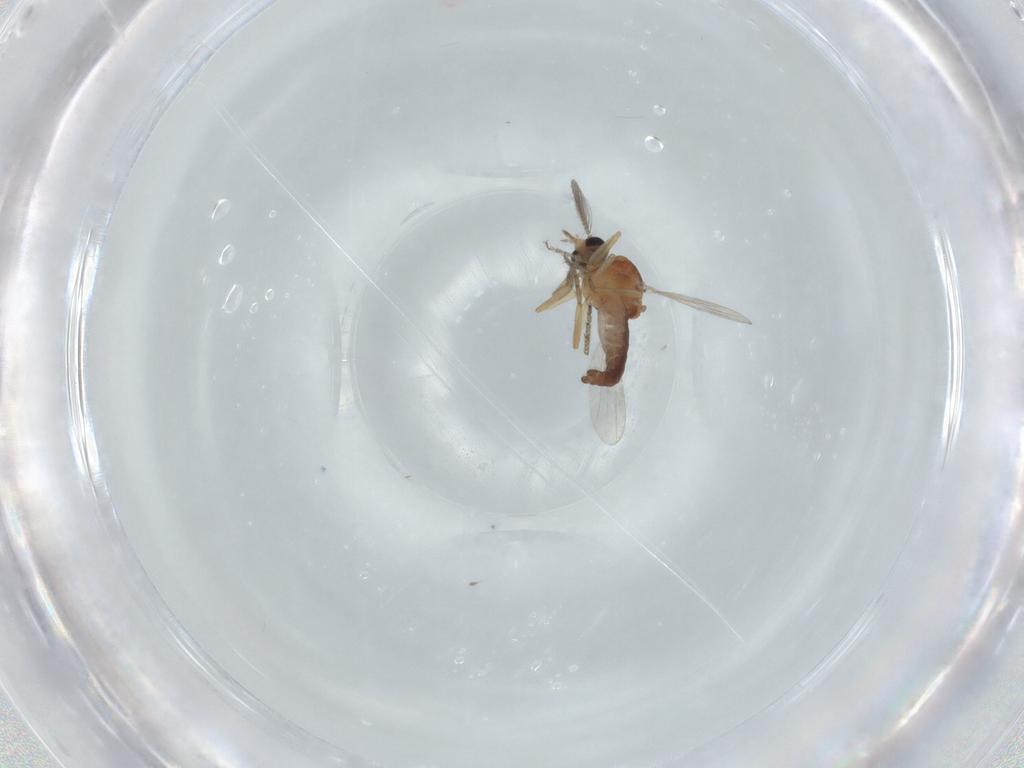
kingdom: Animalia
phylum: Arthropoda
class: Insecta
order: Diptera
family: Ceratopogonidae
